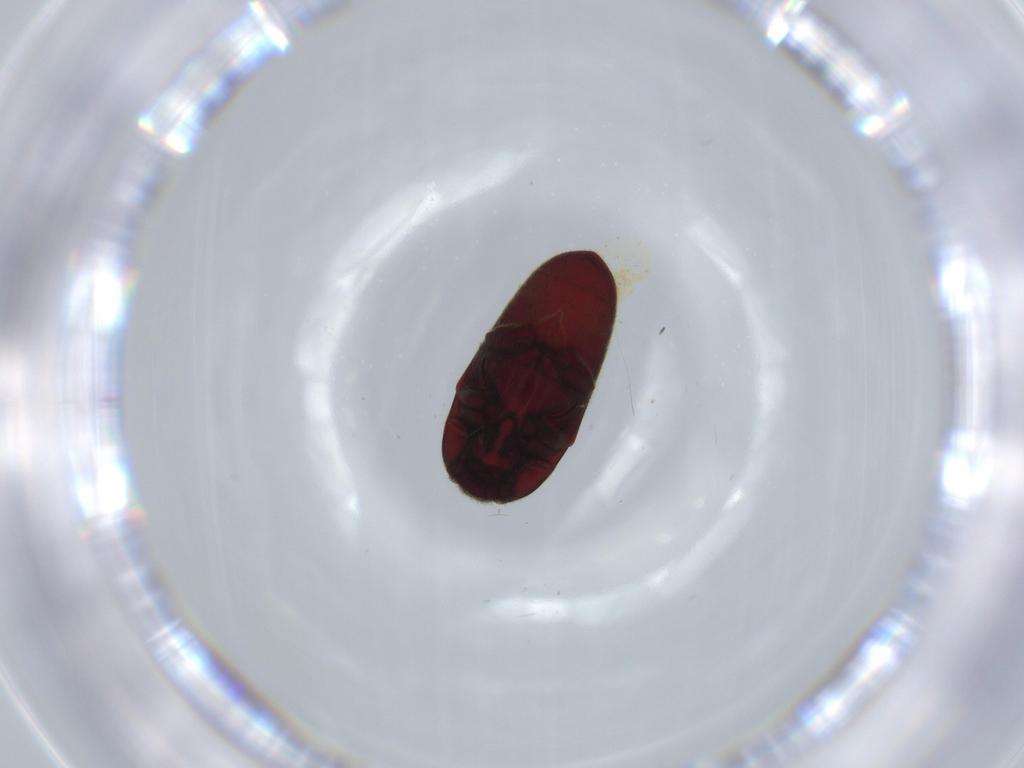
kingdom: Animalia
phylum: Arthropoda
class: Insecta
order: Coleoptera
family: Throscidae
